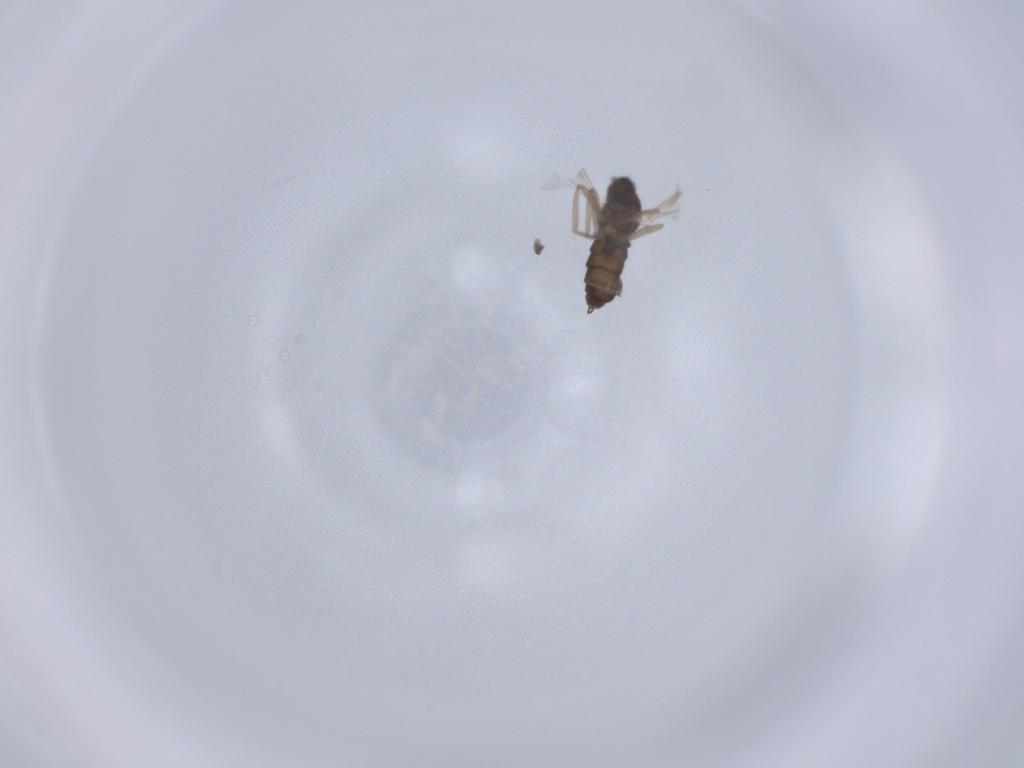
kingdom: Animalia
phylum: Arthropoda
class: Insecta
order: Diptera
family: Cecidomyiidae
